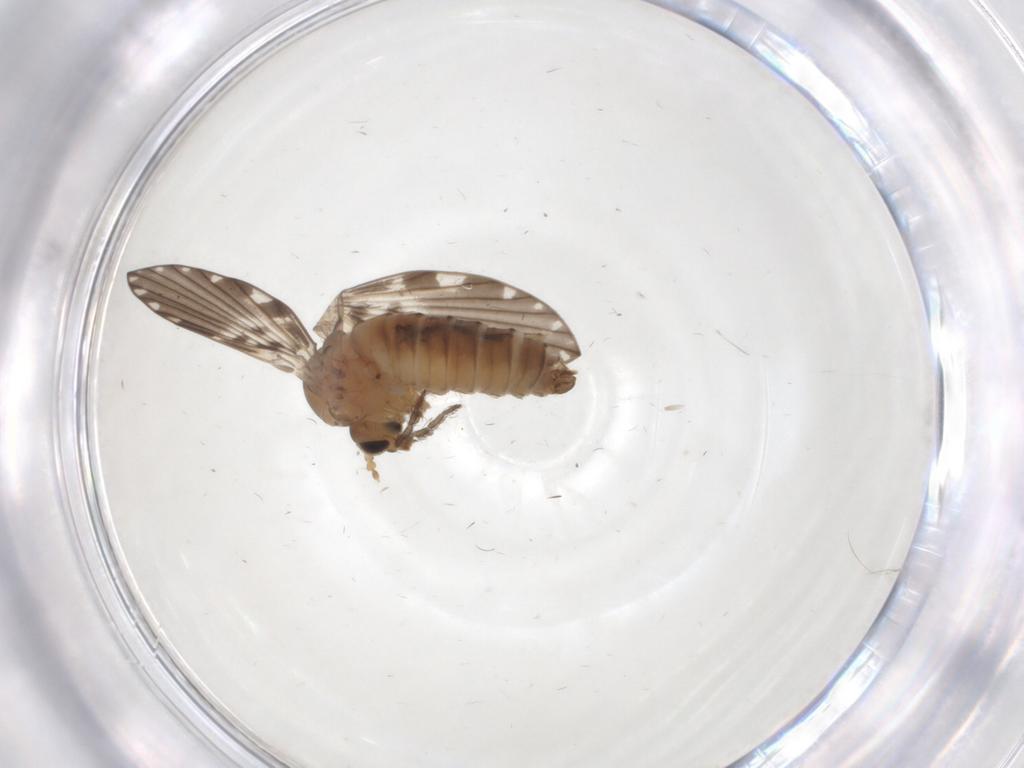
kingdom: Animalia
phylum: Arthropoda
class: Insecta
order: Diptera
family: Psychodidae
